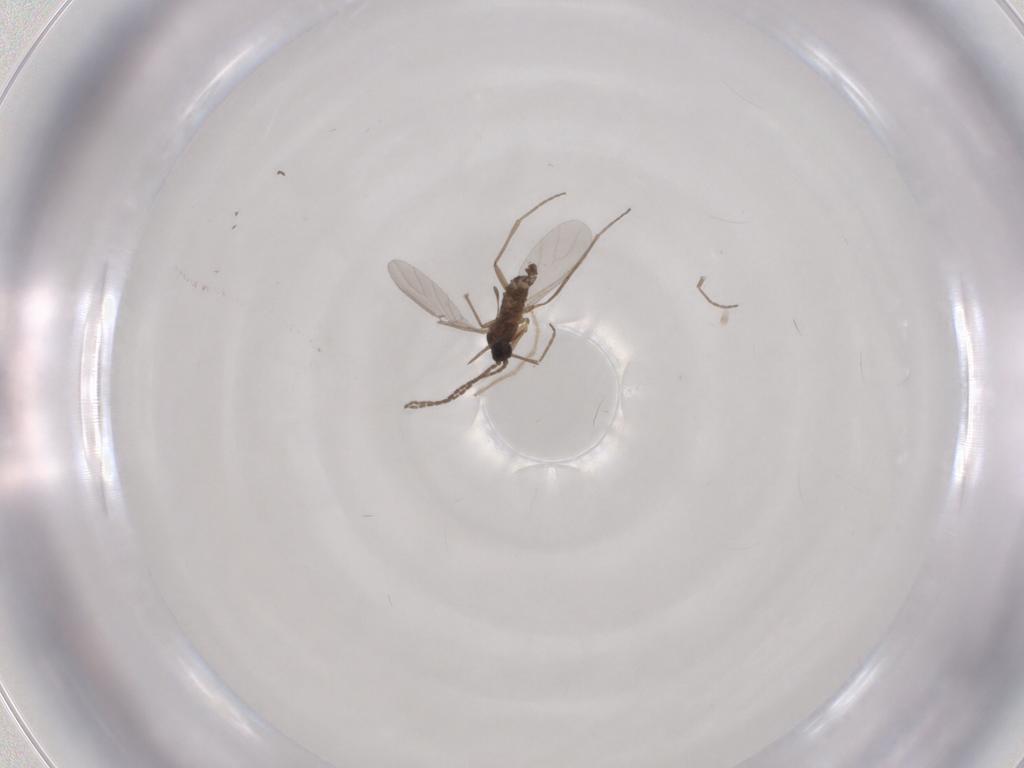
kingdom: Animalia
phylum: Arthropoda
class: Insecta
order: Diptera
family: Sciaridae
